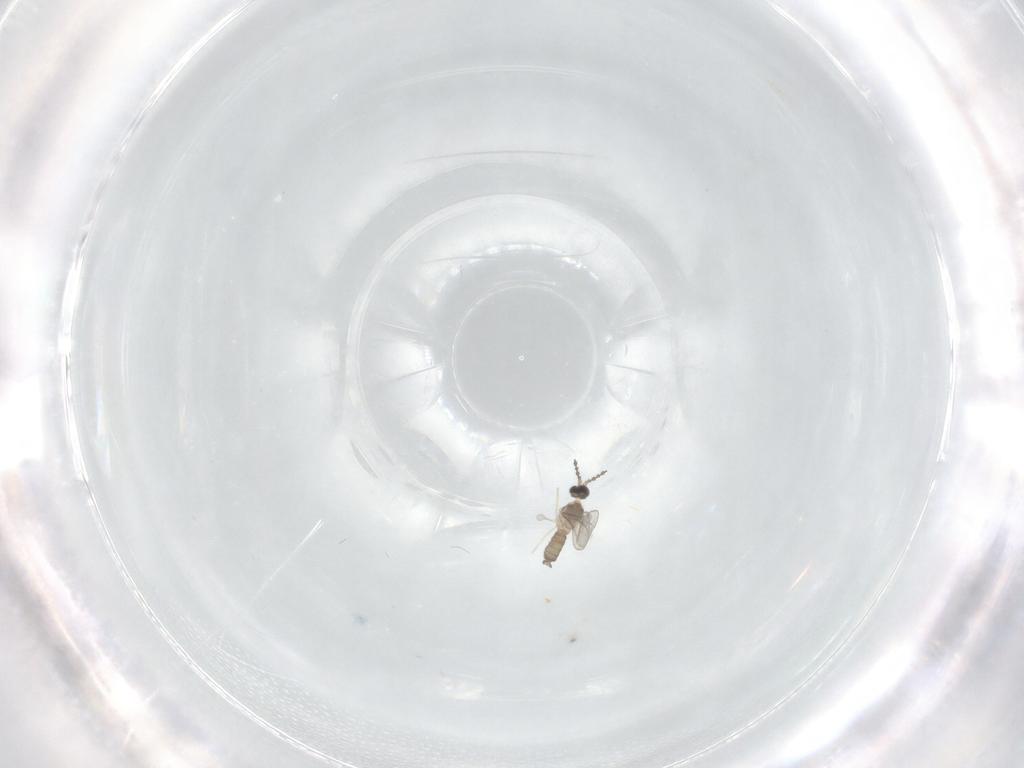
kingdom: Animalia
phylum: Arthropoda
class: Insecta
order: Diptera
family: Cecidomyiidae
